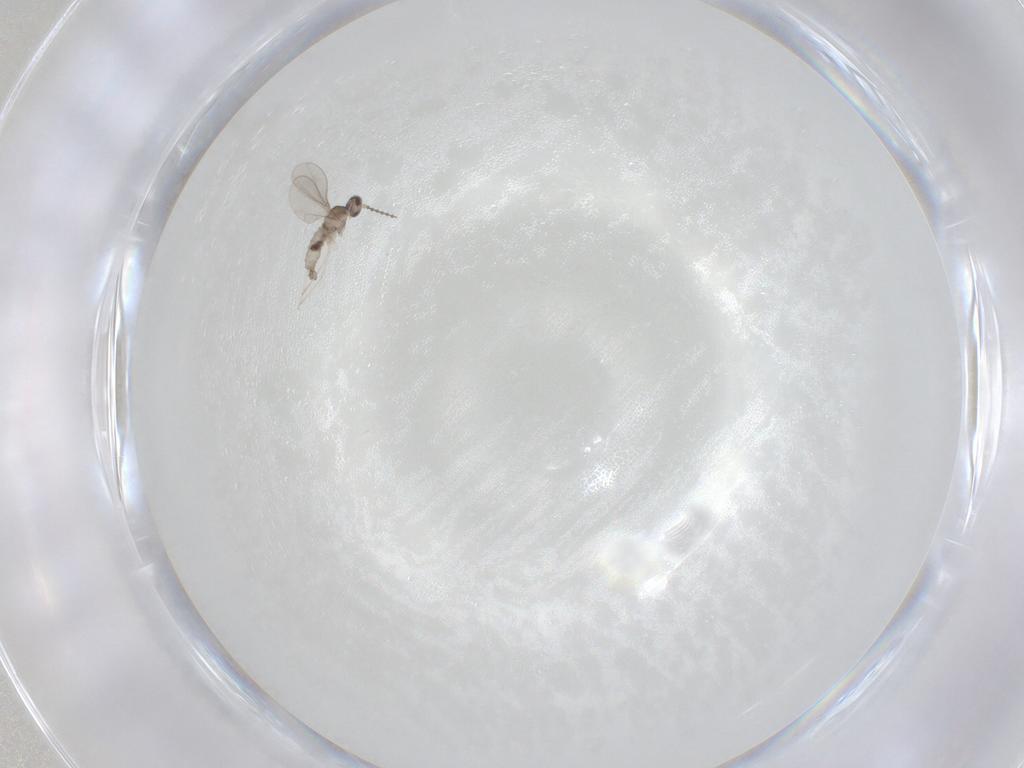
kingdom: Animalia
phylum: Arthropoda
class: Insecta
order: Diptera
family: Cecidomyiidae
